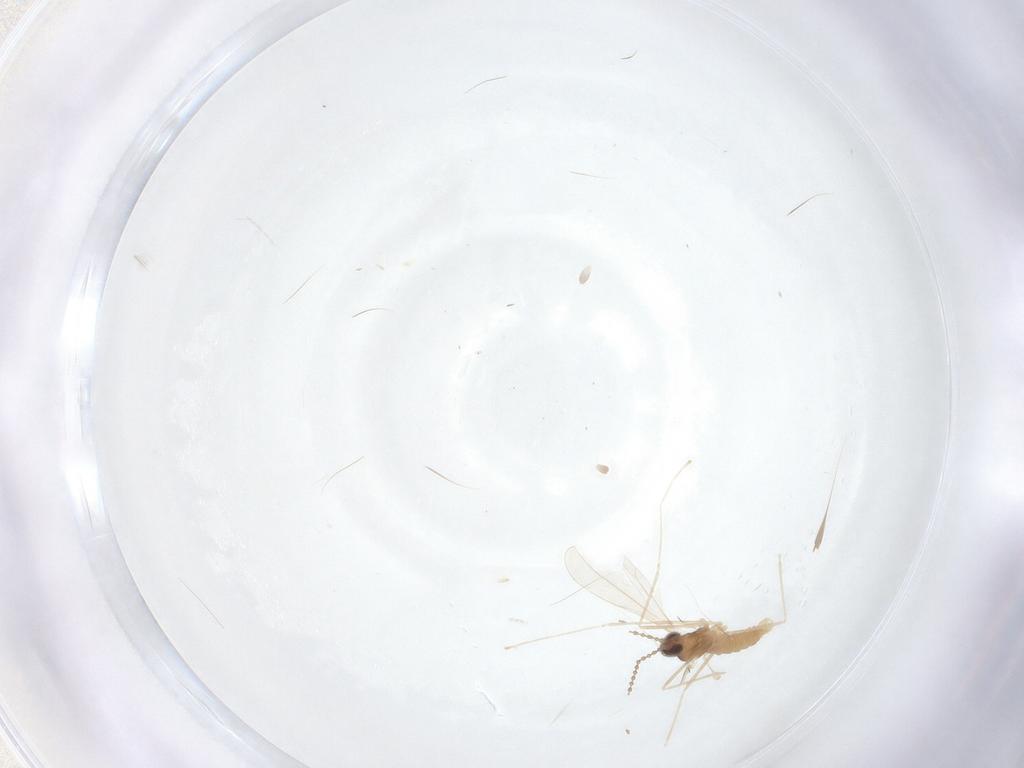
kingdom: Animalia
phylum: Arthropoda
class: Insecta
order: Diptera
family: Cecidomyiidae
